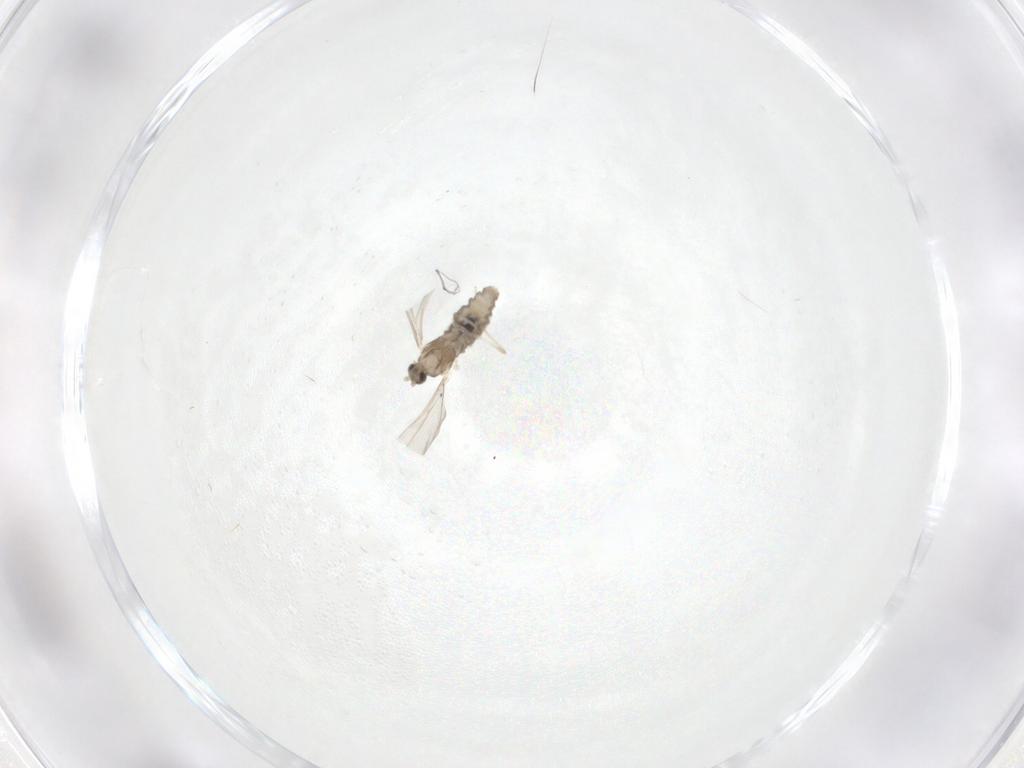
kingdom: Animalia
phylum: Arthropoda
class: Insecta
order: Diptera
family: Cecidomyiidae
